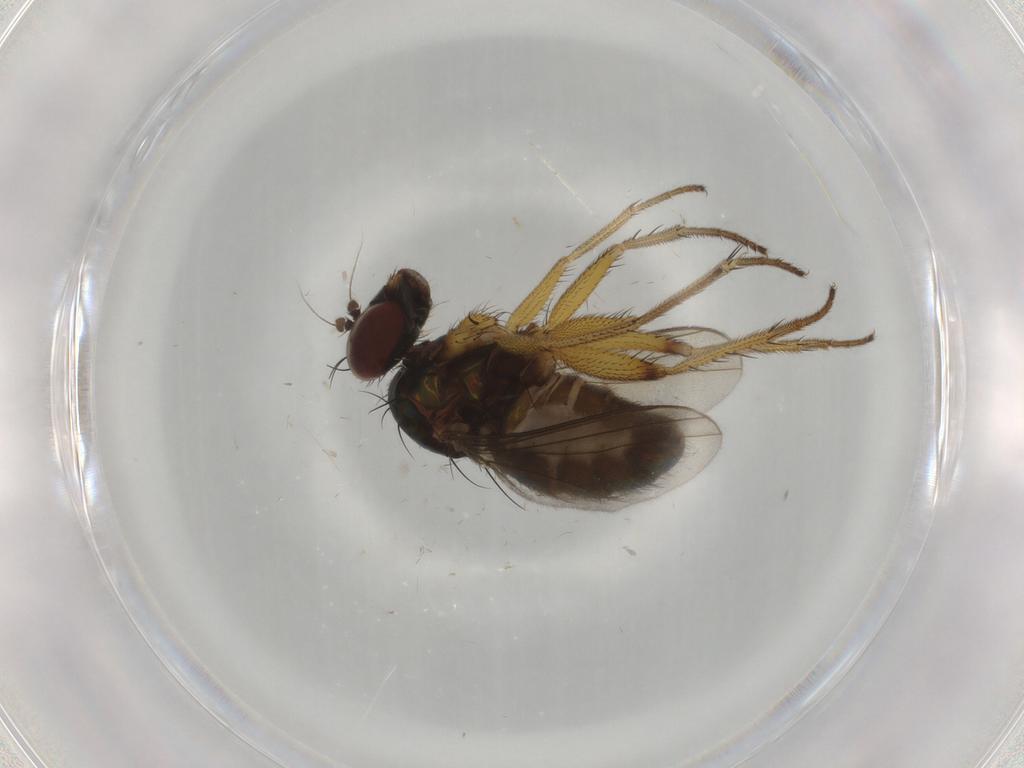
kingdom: Animalia
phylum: Arthropoda
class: Insecta
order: Diptera
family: Dolichopodidae
